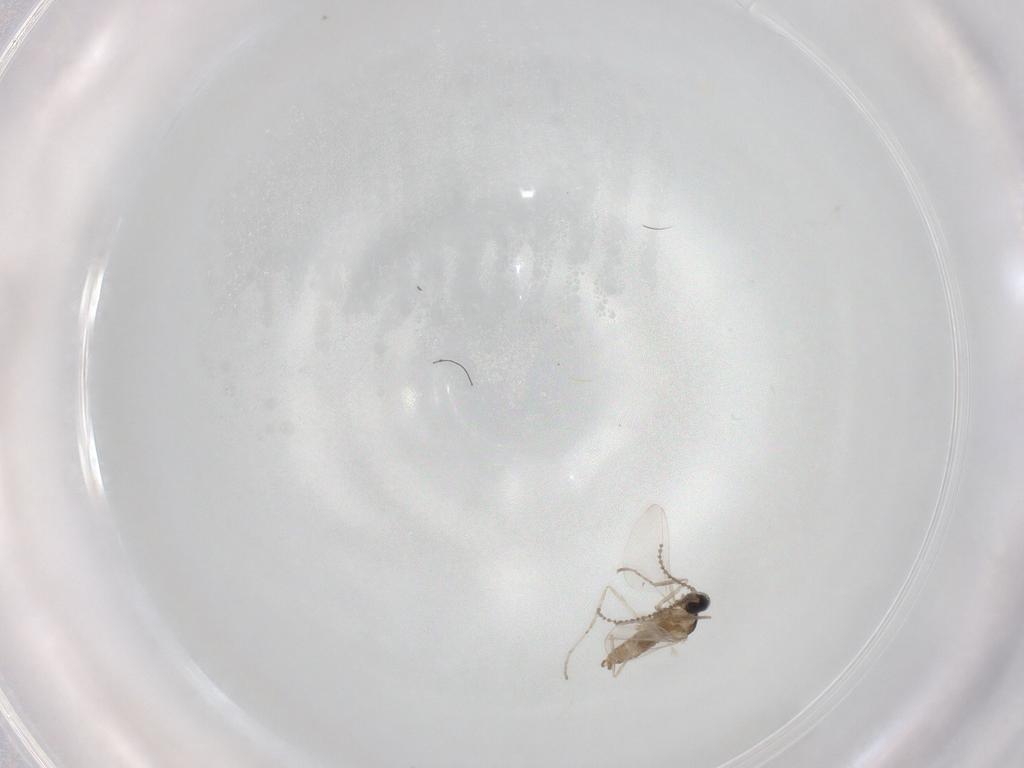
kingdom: Animalia
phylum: Arthropoda
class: Insecta
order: Diptera
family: Cecidomyiidae
